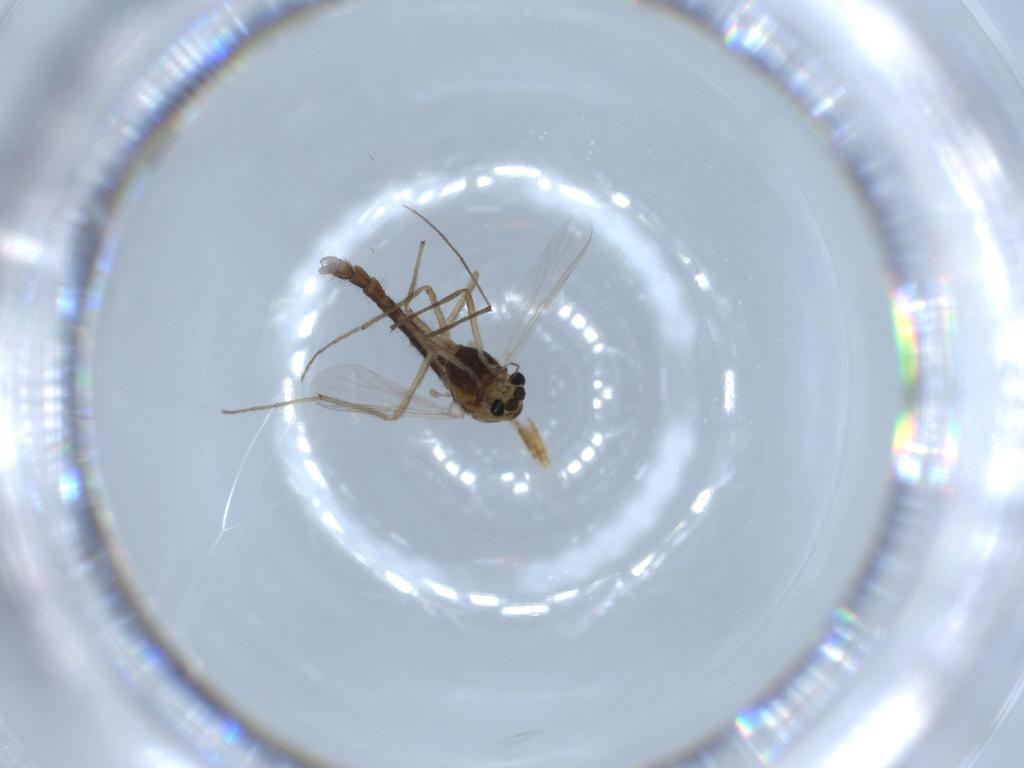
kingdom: Animalia
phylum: Arthropoda
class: Insecta
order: Diptera
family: Chironomidae
